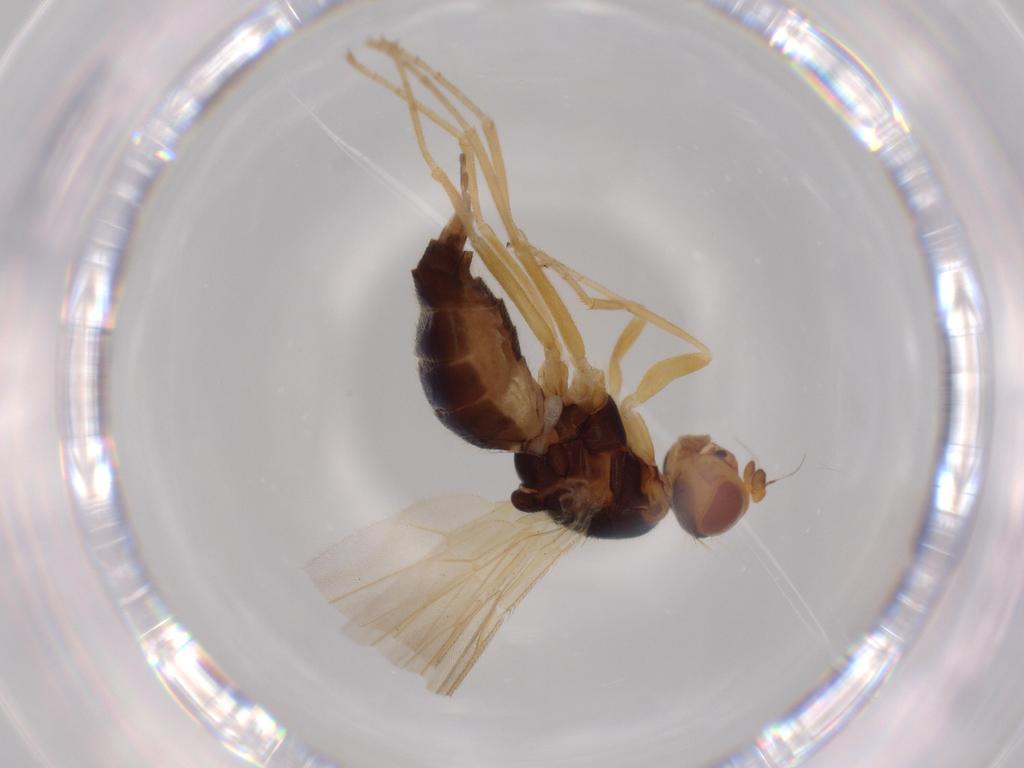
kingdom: Animalia
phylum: Arthropoda
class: Insecta
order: Diptera
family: Psilidae
